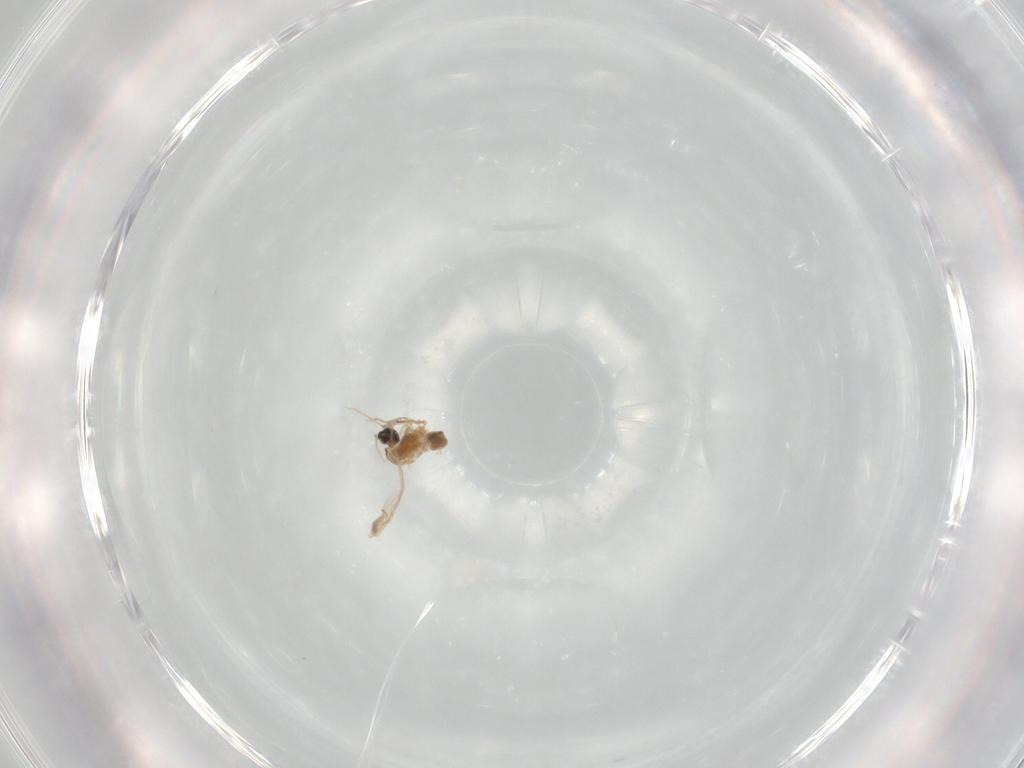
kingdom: Animalia
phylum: Arthropoda
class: Insecta
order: Diptera
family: Cecidomyiidae
